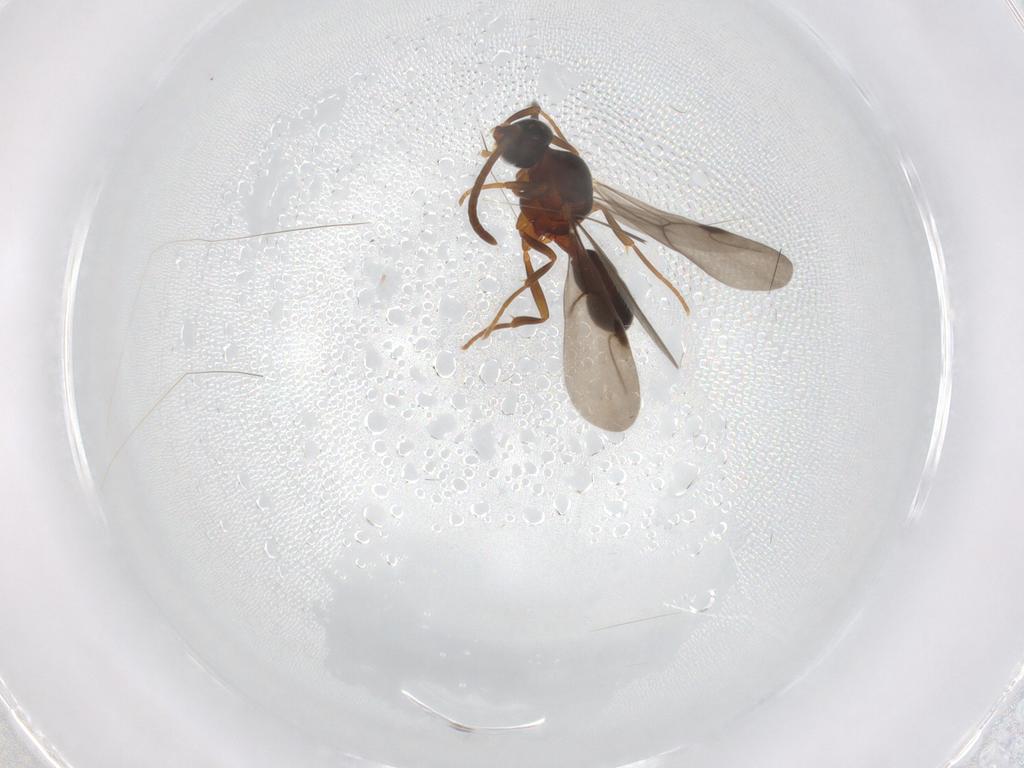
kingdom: Animalia
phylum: Arthropoda
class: Insecta
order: Hymenoptera
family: Formicidae
